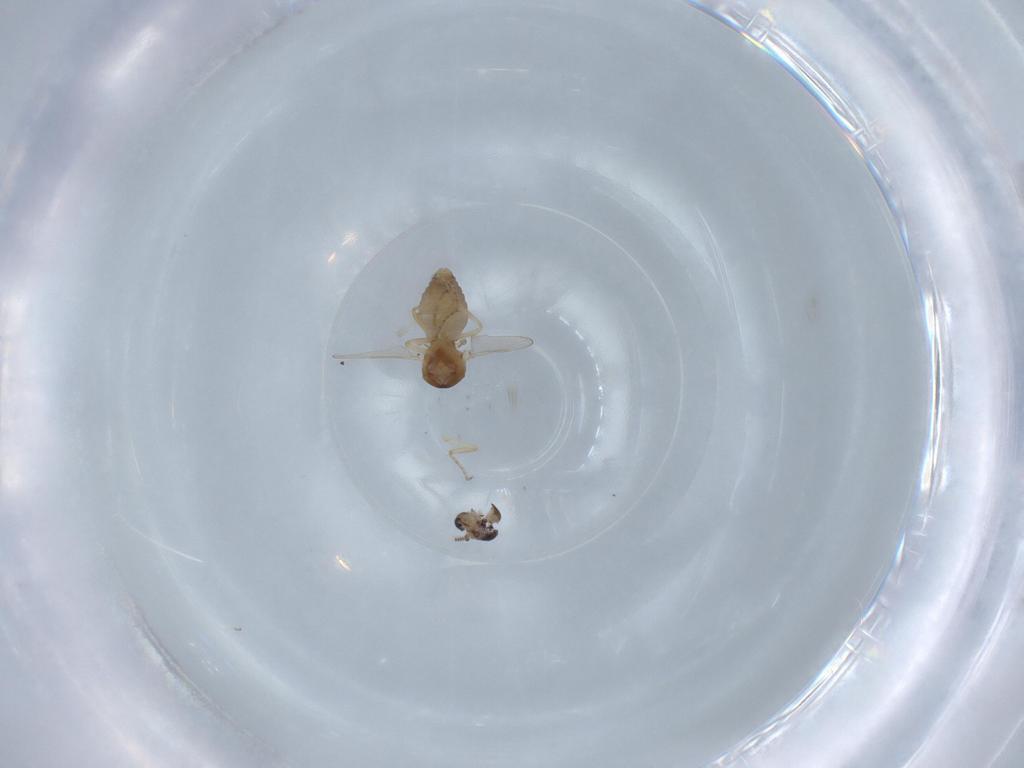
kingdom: Animalia
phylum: Arthropoda
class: Insecta
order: Diptera
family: Ceratopogonidae
